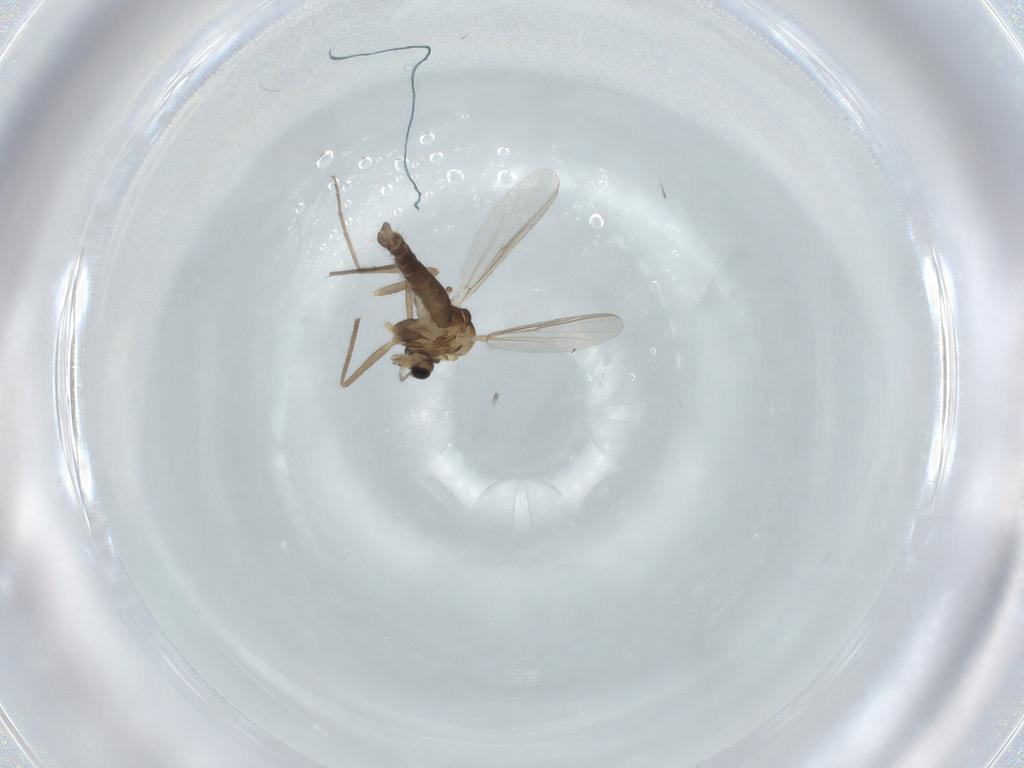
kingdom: Animalia
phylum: Arthropoda
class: Insecta
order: Diptera
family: Chironomidae
